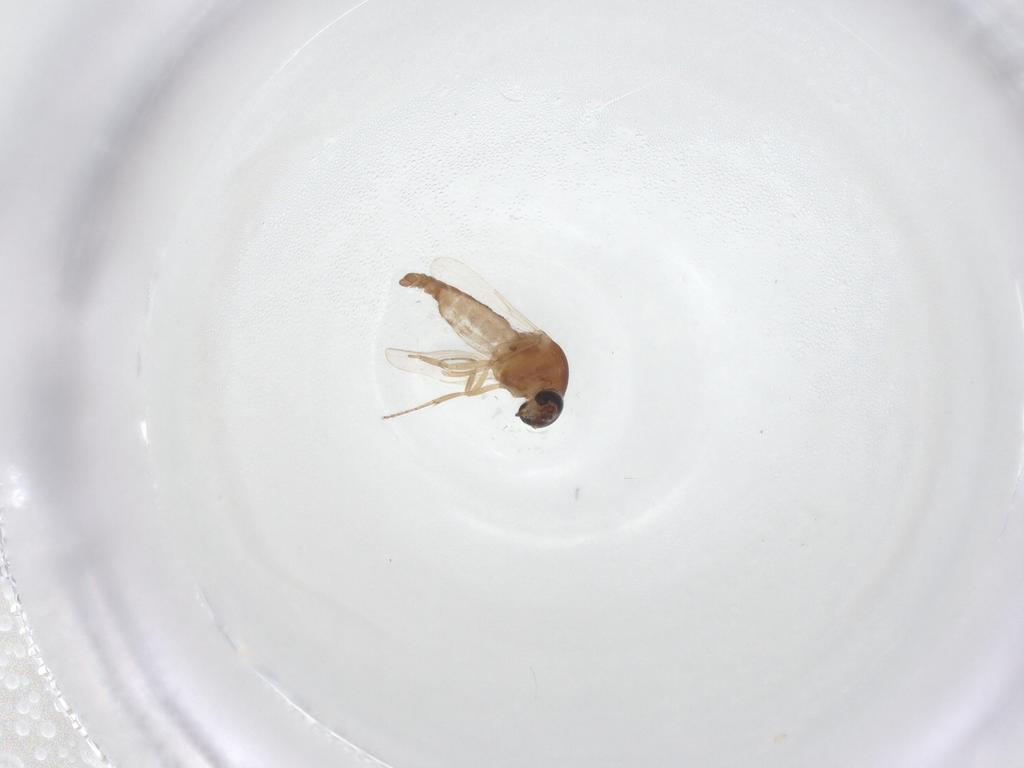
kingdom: Animalia
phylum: Arthropoda
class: Insecta
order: Diptera
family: Ceratopogonidae
